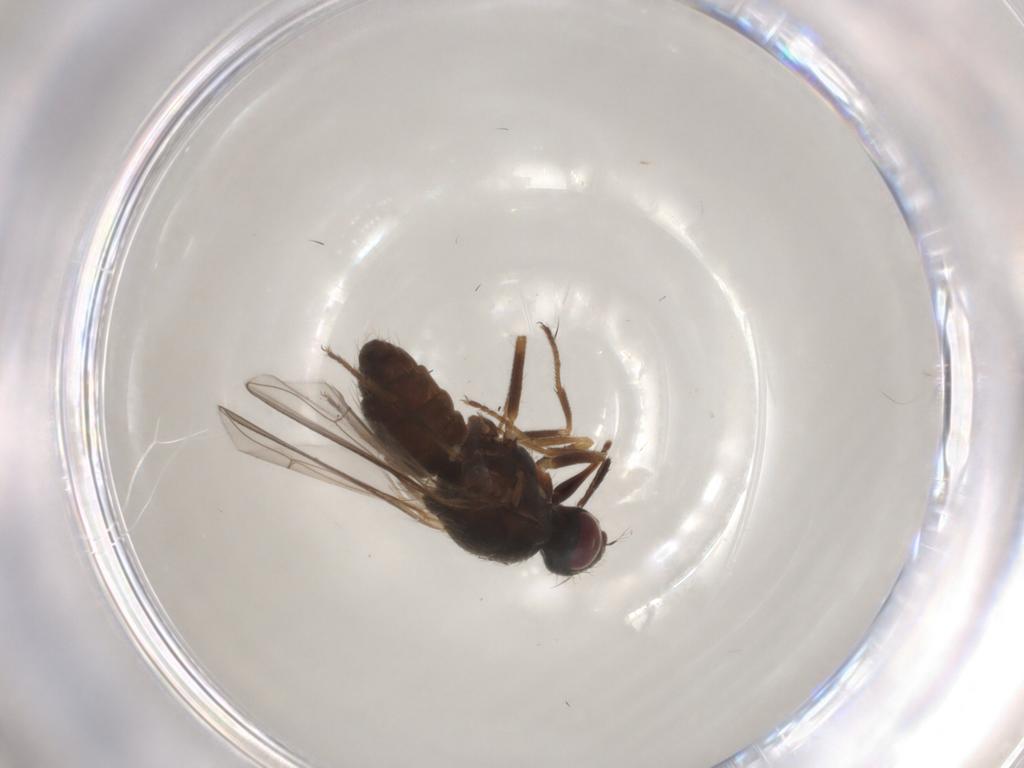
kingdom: Animalia
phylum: Arthropoda
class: Insecta
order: Diptera
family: Muscidae
